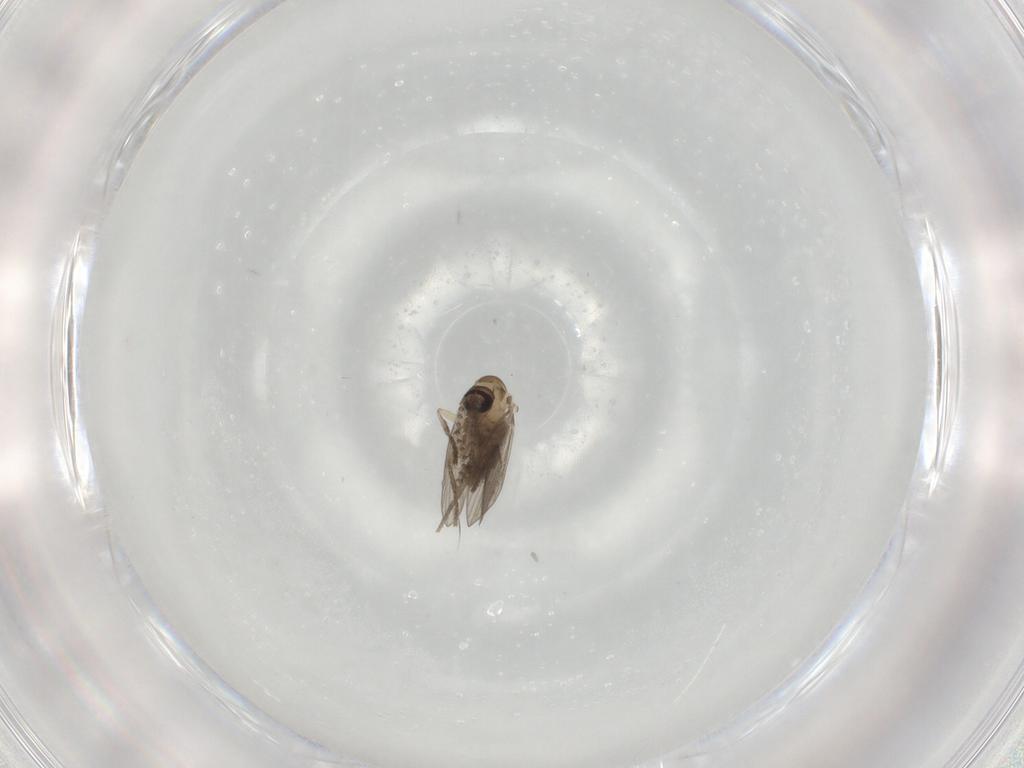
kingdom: Animalia
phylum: Arthropoda
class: Insecta
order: Diptera
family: Psychodidae
